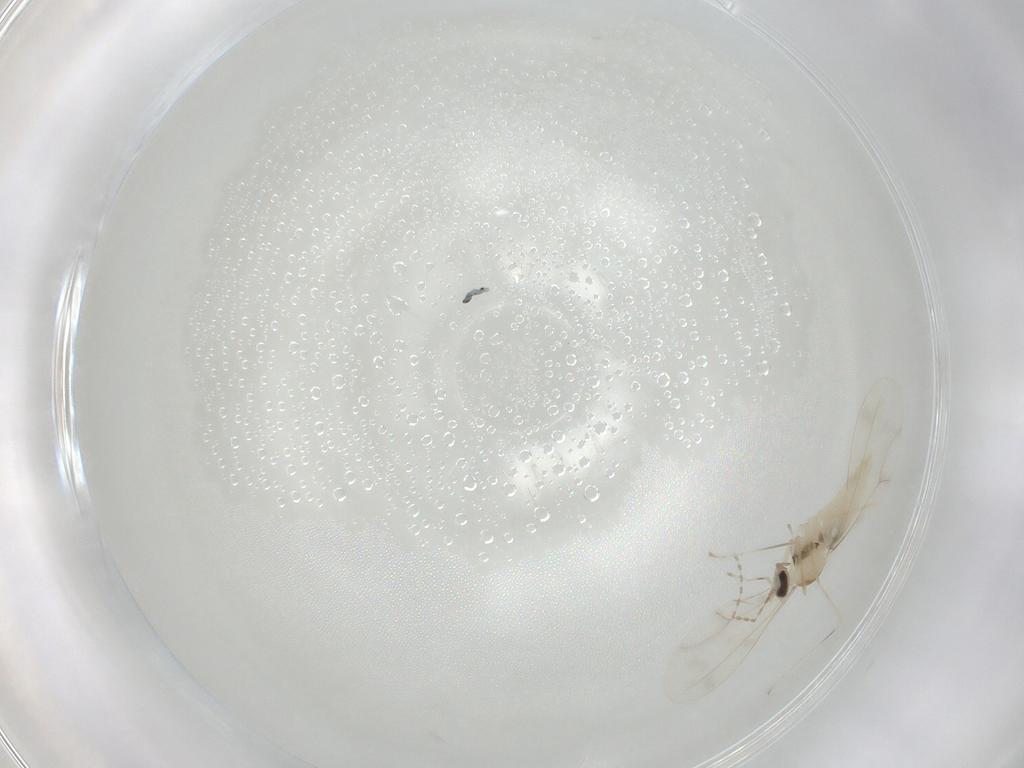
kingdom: Animalia
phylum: Arthropoda
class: Insecta
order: Diptera
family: Cecidomyiidae
